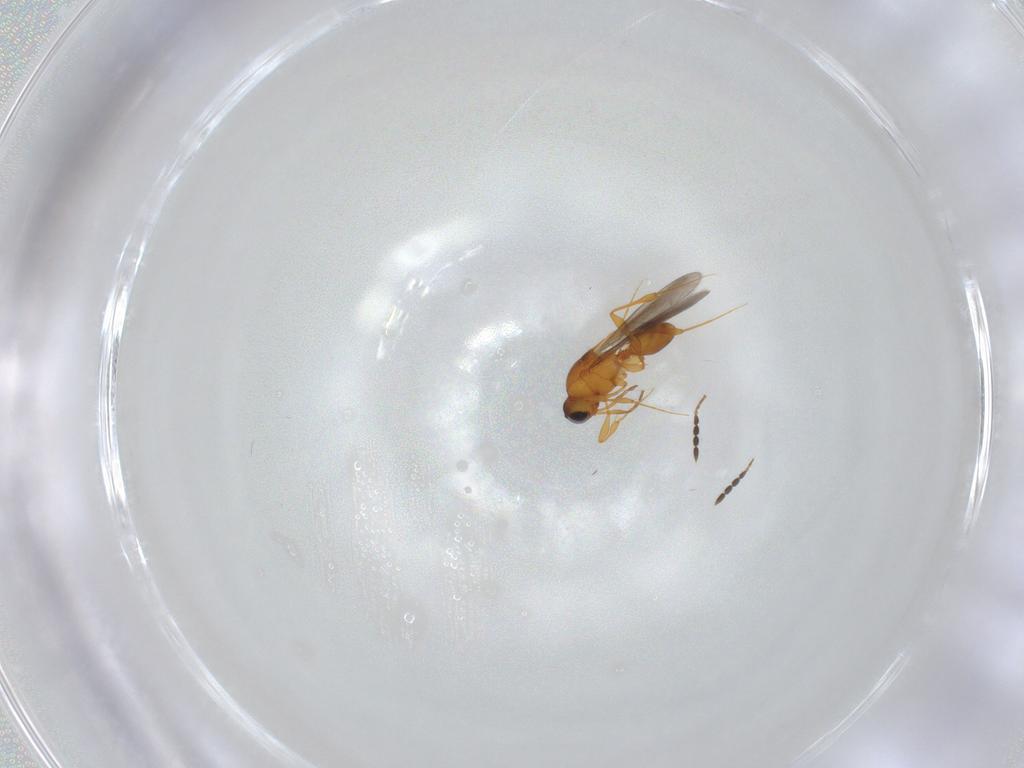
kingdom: Animalia
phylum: Arthropoda
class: Insecta
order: Hymenoptera
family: Platygastridae
